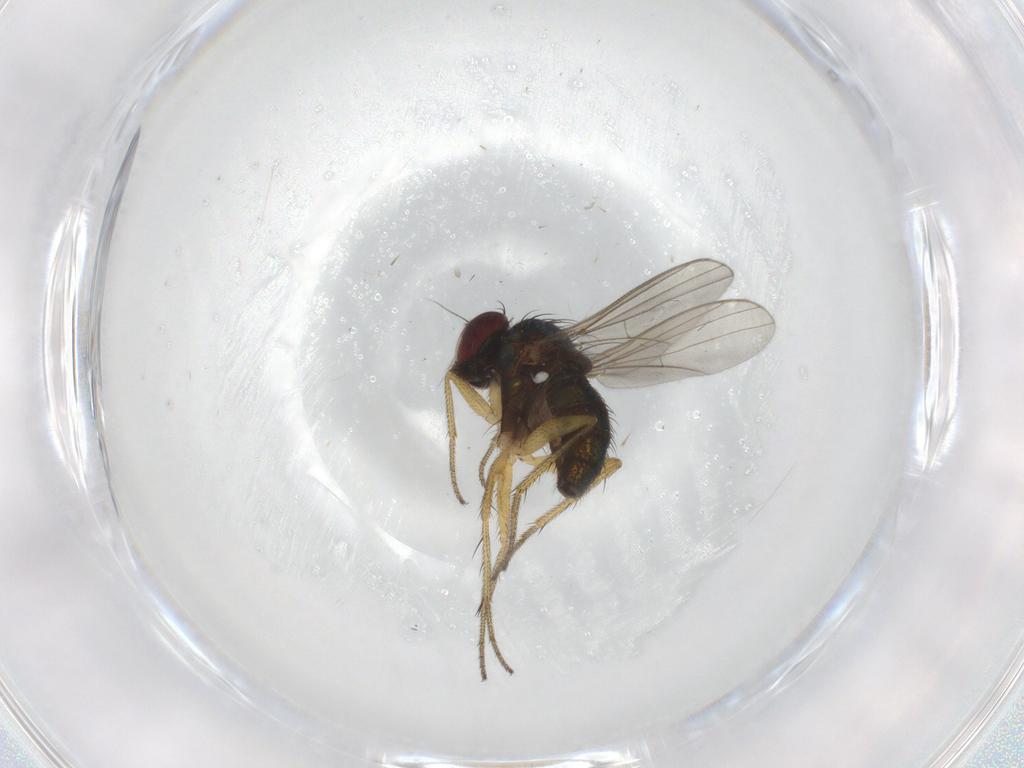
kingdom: Animalia
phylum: Arthropoda
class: Insecta
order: Diptera
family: Dolichopodidae
